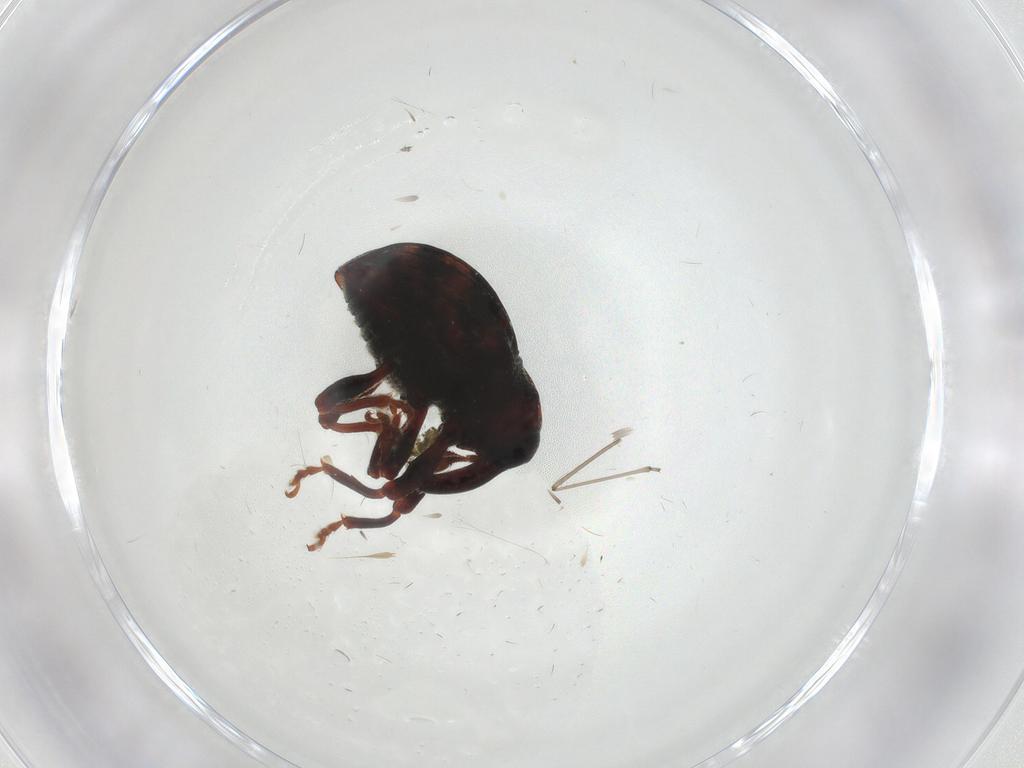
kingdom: Animalia
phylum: Arthropoda
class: Insecta
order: Coleoptera
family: Curculionidae
